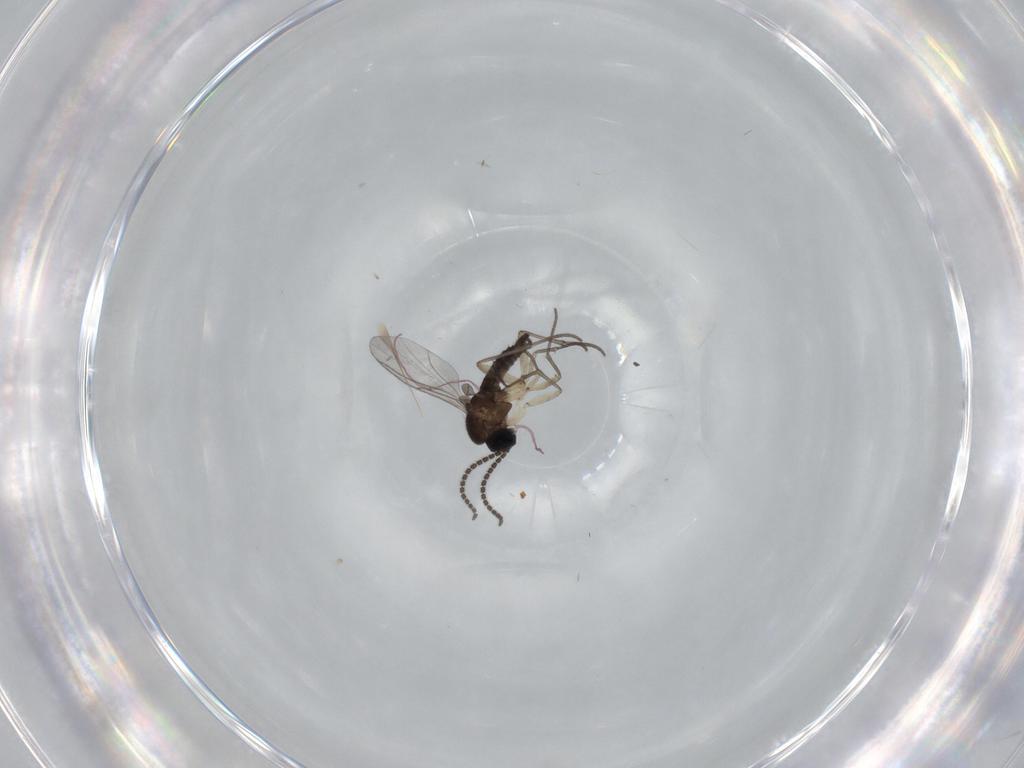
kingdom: Animalia
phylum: Arthropoda
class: Insecta
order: Diptera
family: Sciaridae
